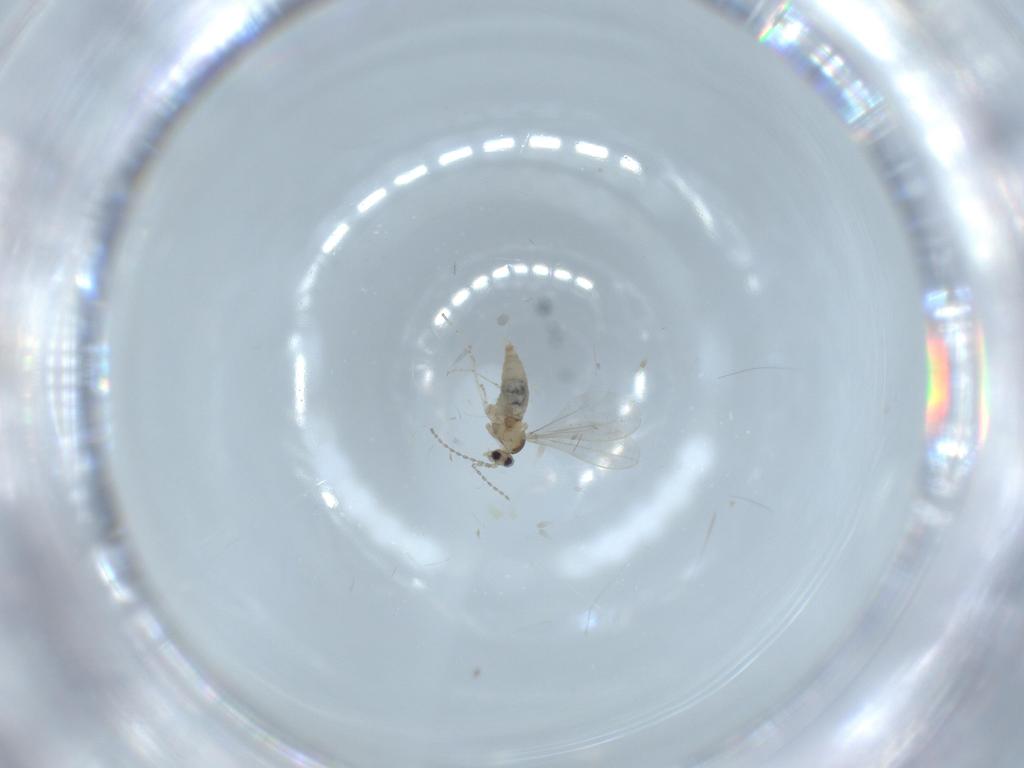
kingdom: Animalia
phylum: Arthropoda
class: Insecta
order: Diptera
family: Cecidomyiidae
